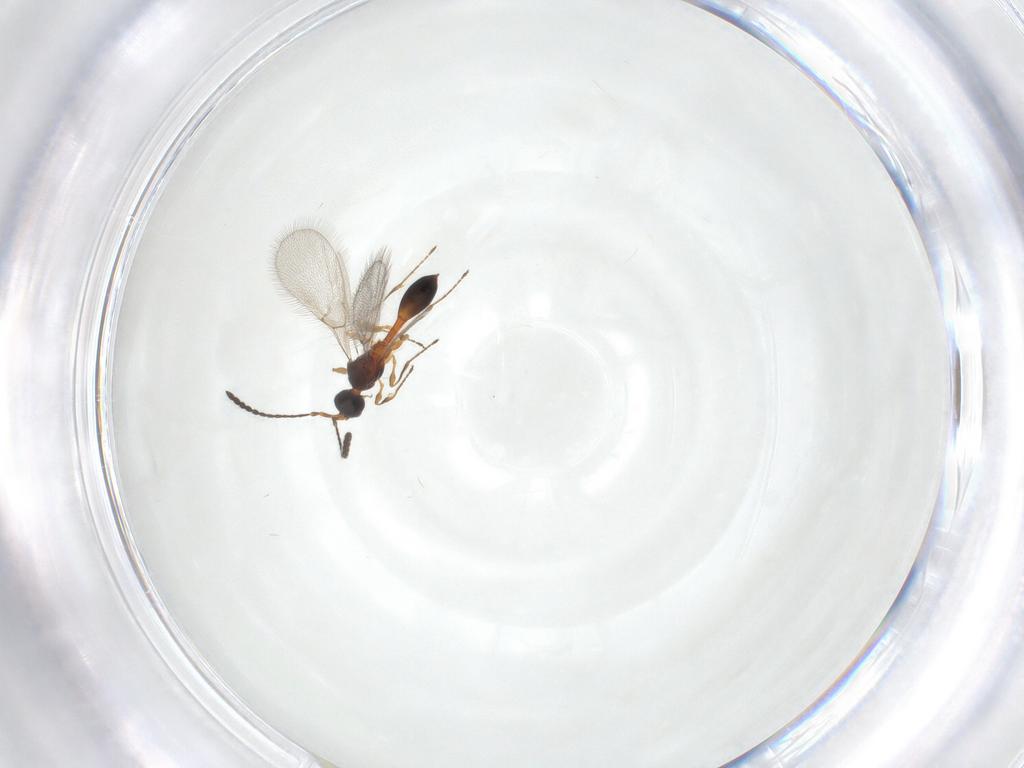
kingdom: Animalia
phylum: Arthropoda
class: Insecta
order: Hymenoptera
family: Diapriidae
